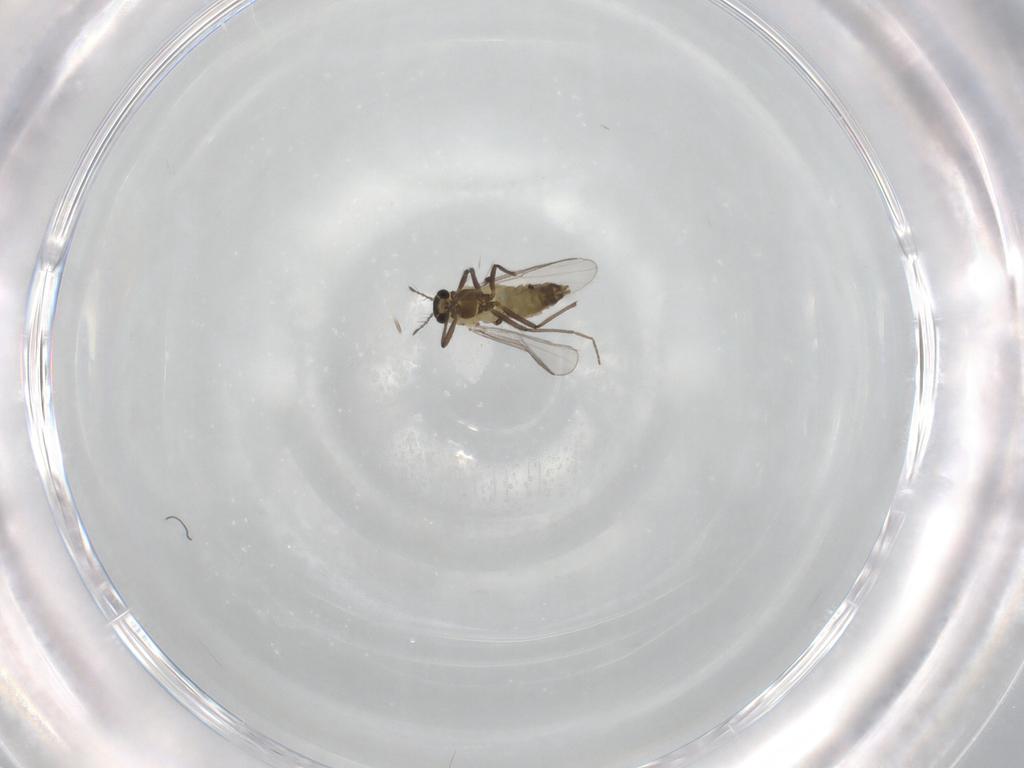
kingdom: Animalia
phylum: Arthropoda
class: Insecta
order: Diptera
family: Chironomidae
